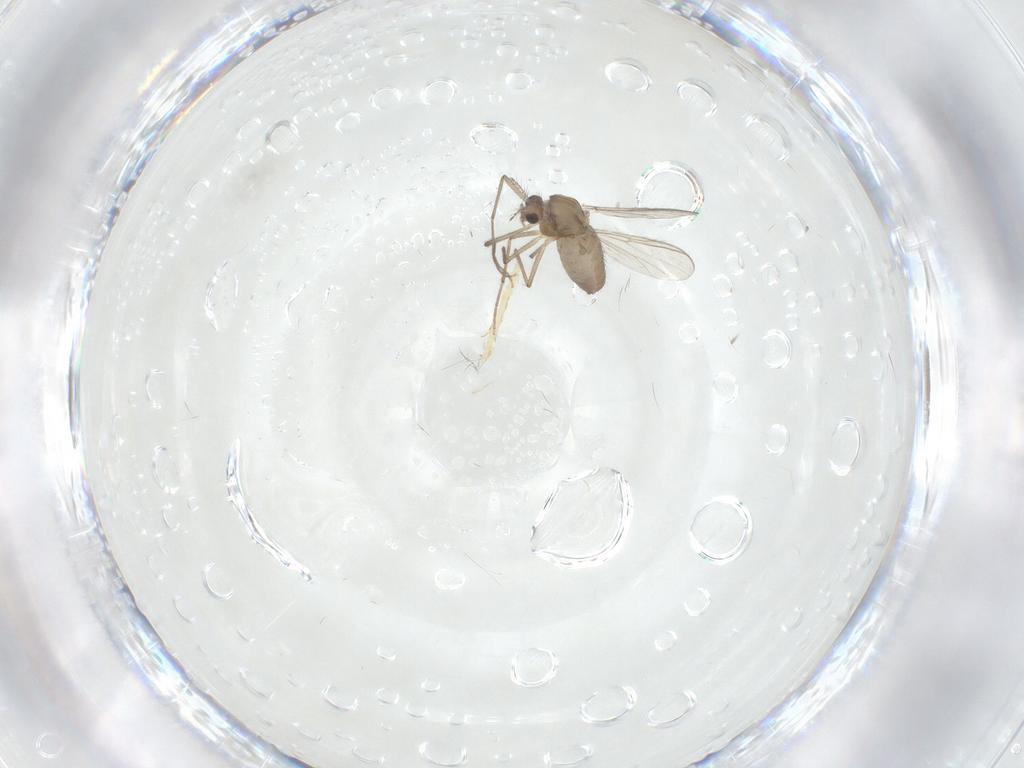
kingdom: Animalia
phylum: Arthropoda
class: Insecta
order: Diptera
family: Chironomidae
